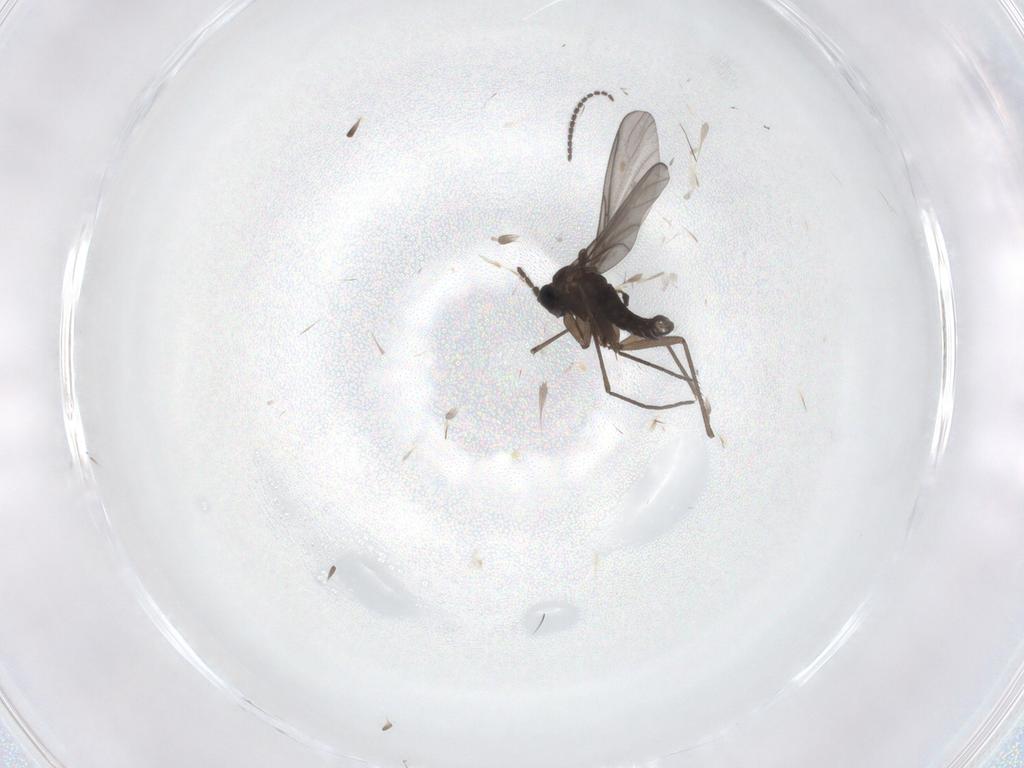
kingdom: Animalia
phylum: Arthropoda
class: Insecta
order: Diptera
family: Sciaridae
